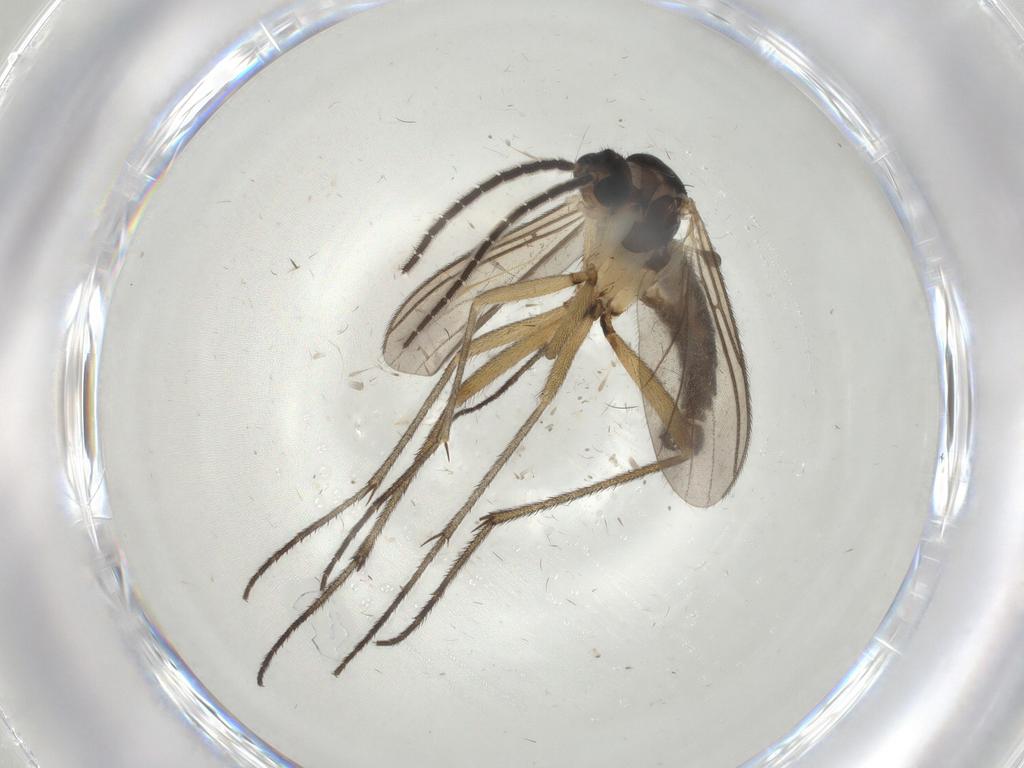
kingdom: Animalia
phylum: Arthropoda
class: Insecta
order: Diptera
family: Sciaridae
